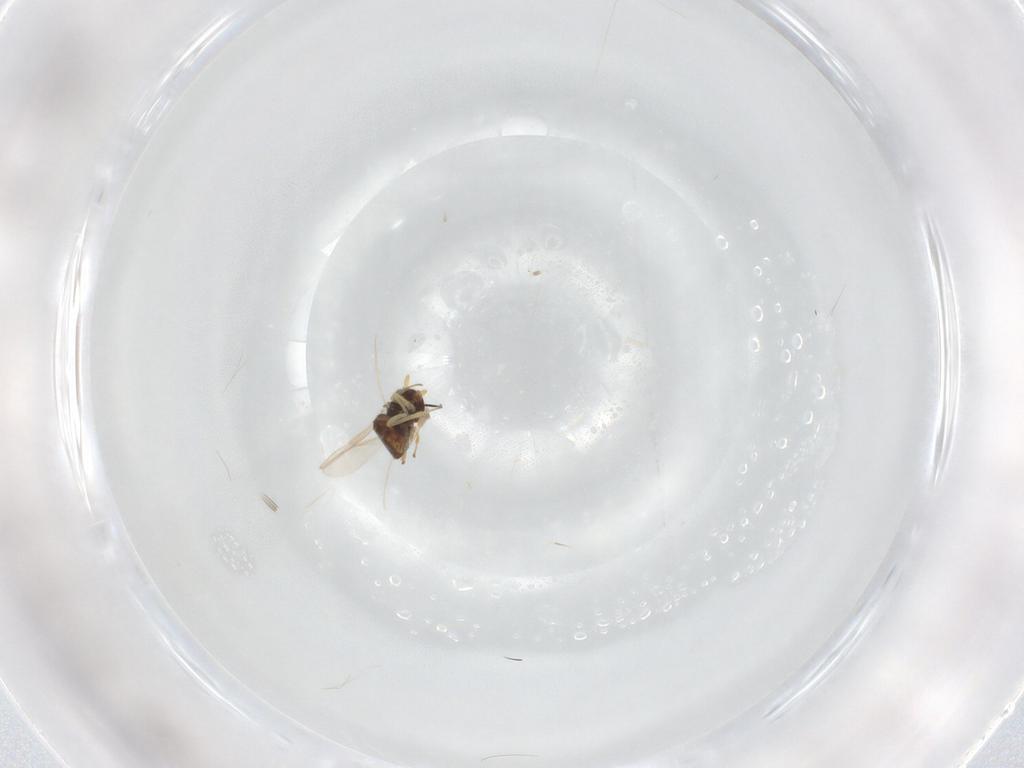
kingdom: Animalia
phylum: Arthropoda
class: Insecta
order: Hymenoptera
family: Aphelinidae
